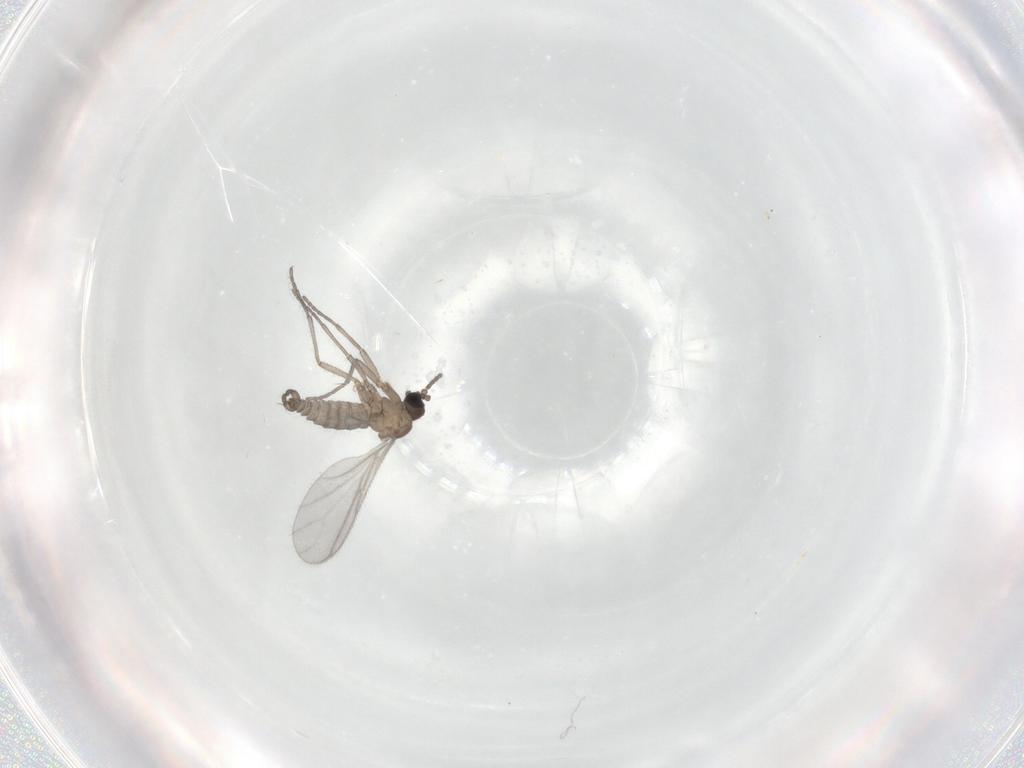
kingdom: Animalia
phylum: Arthropoda
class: Insecta
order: Diptera
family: Sciaridae
